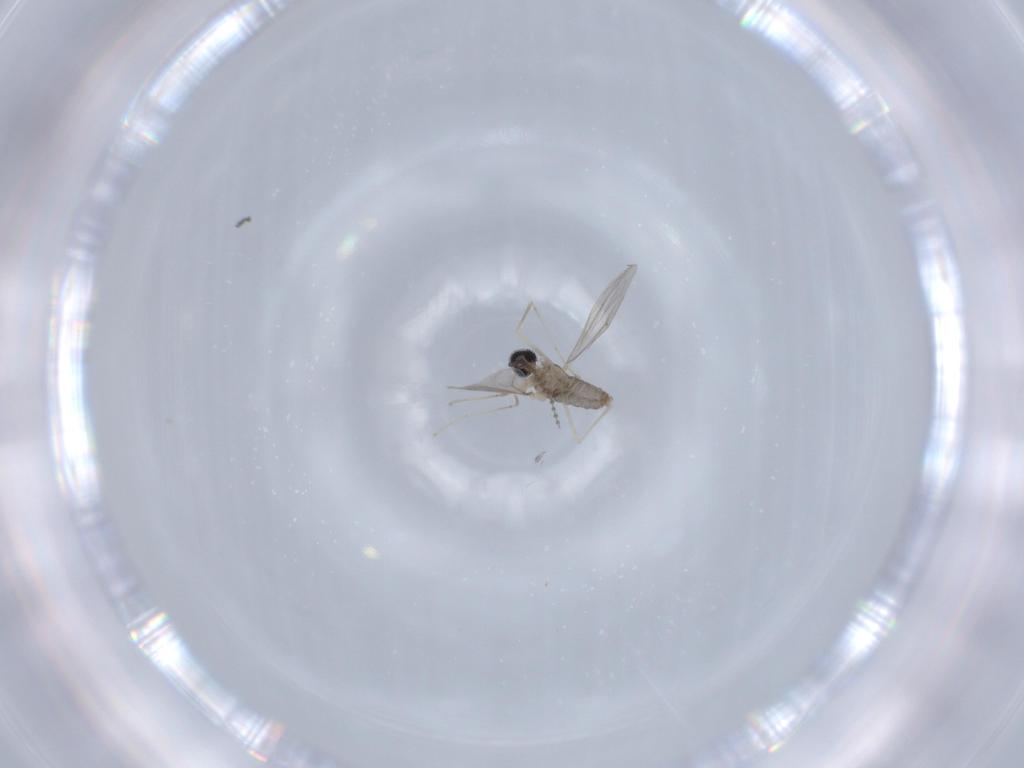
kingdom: Animalia
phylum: Arthropoda
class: Insecta
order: Diptera
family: Cecidomyiidae
